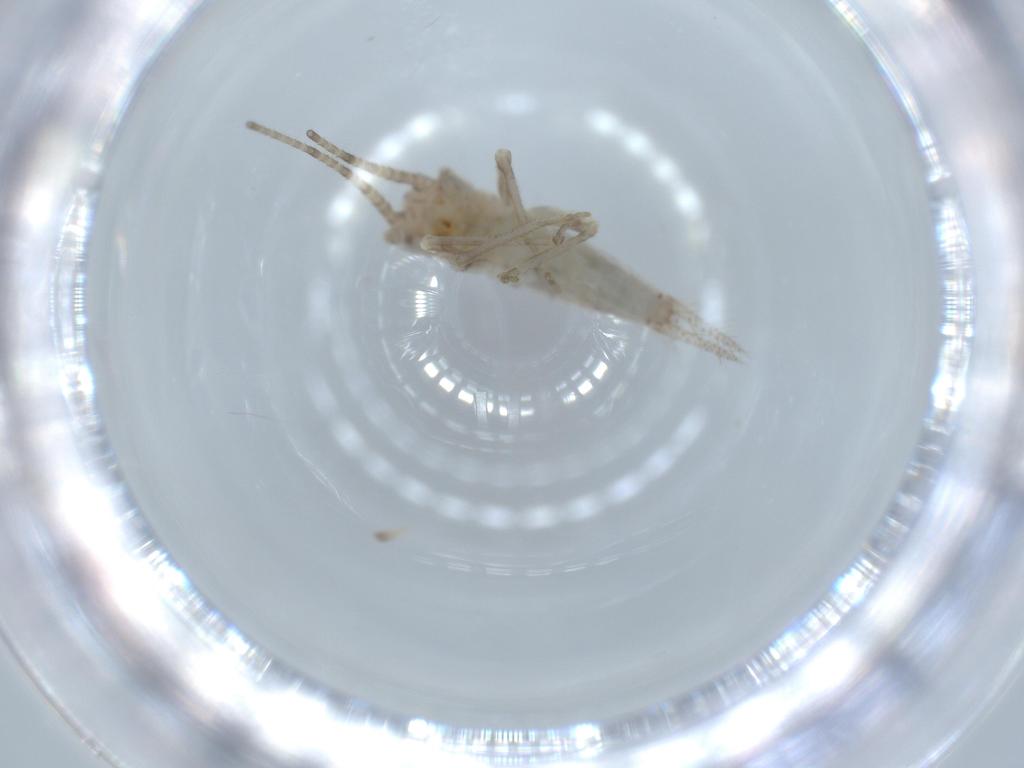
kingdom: Animalia
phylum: Arthropoda
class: Insecta
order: Orthoptera
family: Trigonidiidae
